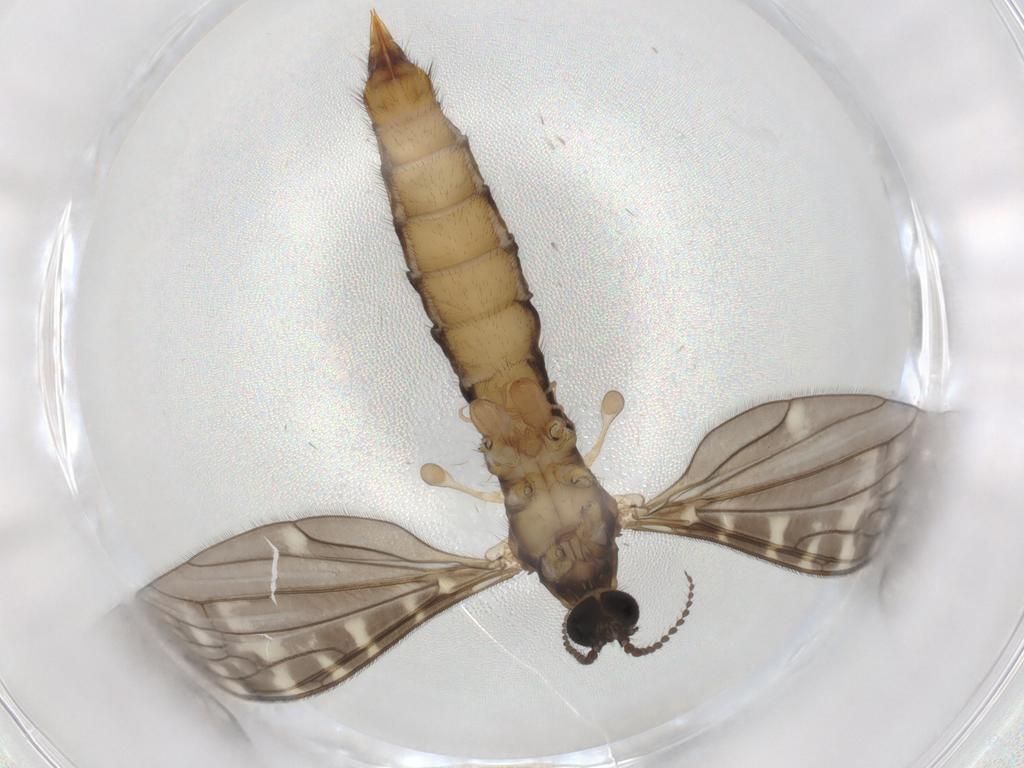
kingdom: Animalia
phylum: Arthropoda
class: Insecta
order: Diptera
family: Limoniidae
